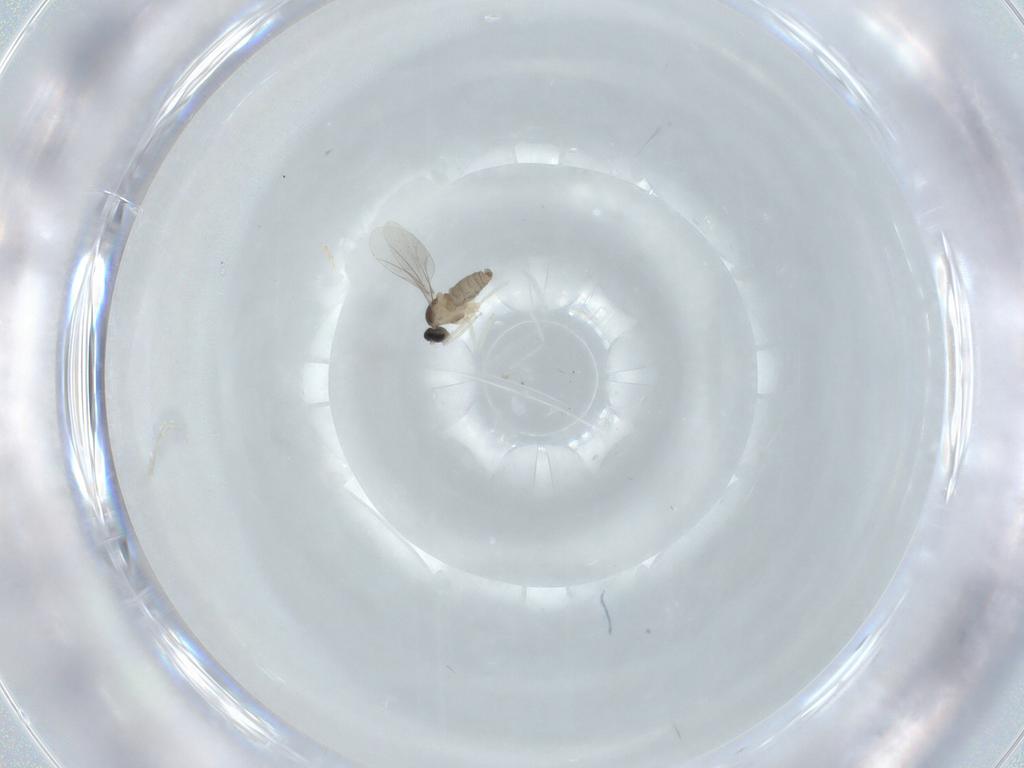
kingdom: Animalia
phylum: Arthropoda
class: Insecta
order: Diptera
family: Cecidomyiidae
